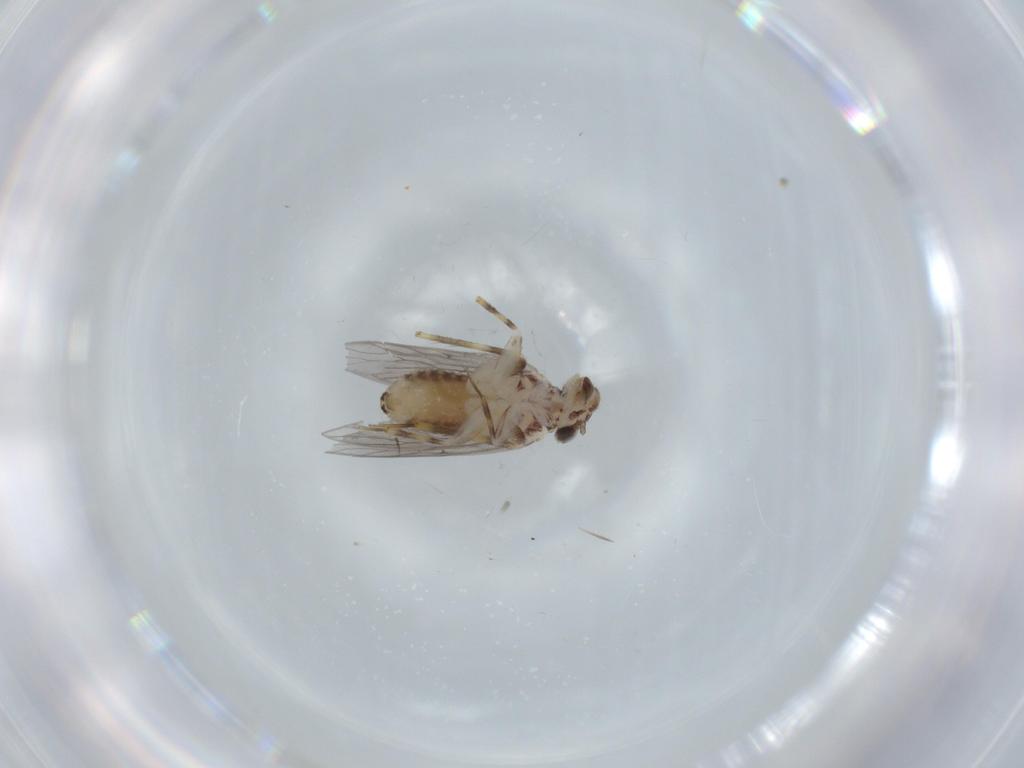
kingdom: Animalia
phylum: Arthropoda
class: Insecta
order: Psocodea
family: Lepidopsocidae
